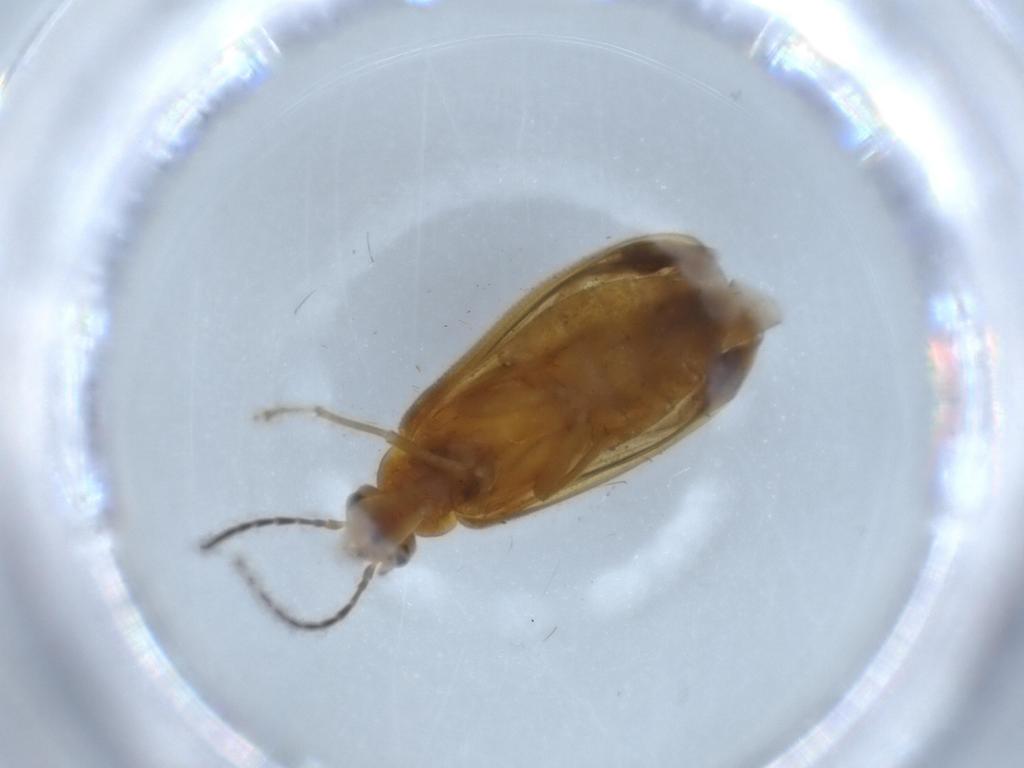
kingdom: Animalia
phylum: Arthropoda
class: Insecta
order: Coleoptera
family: Scraptiidae
